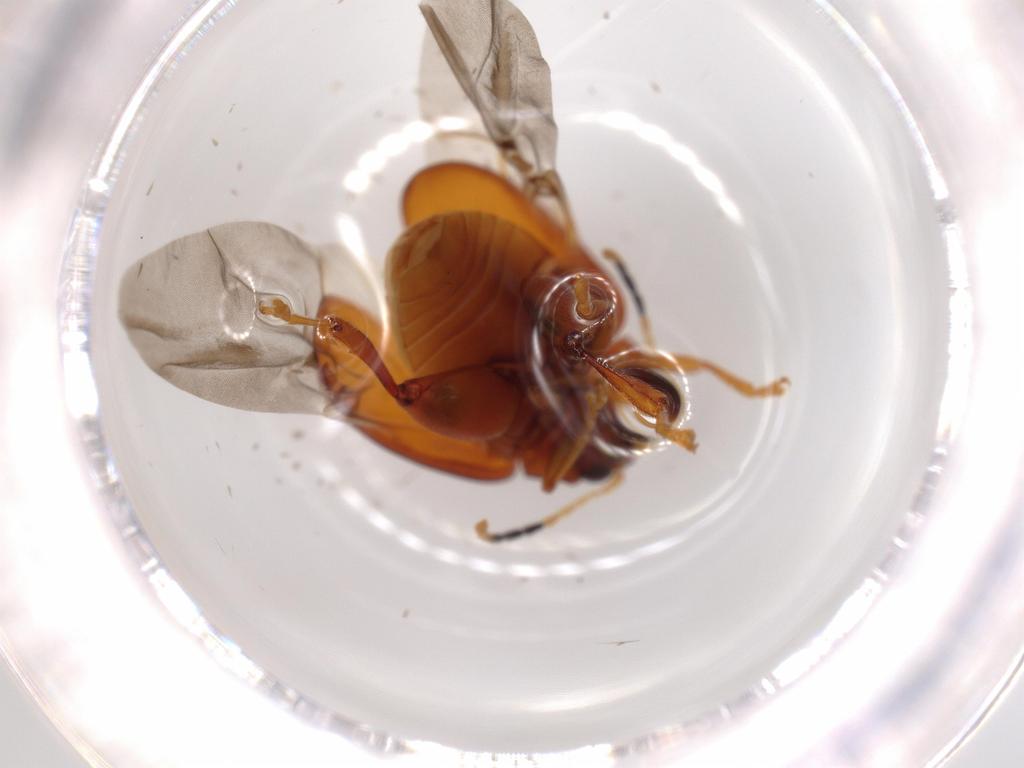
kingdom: Animalia
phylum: Arthropoda
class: Insecta
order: Coleoptera
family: Chrysomelidae
